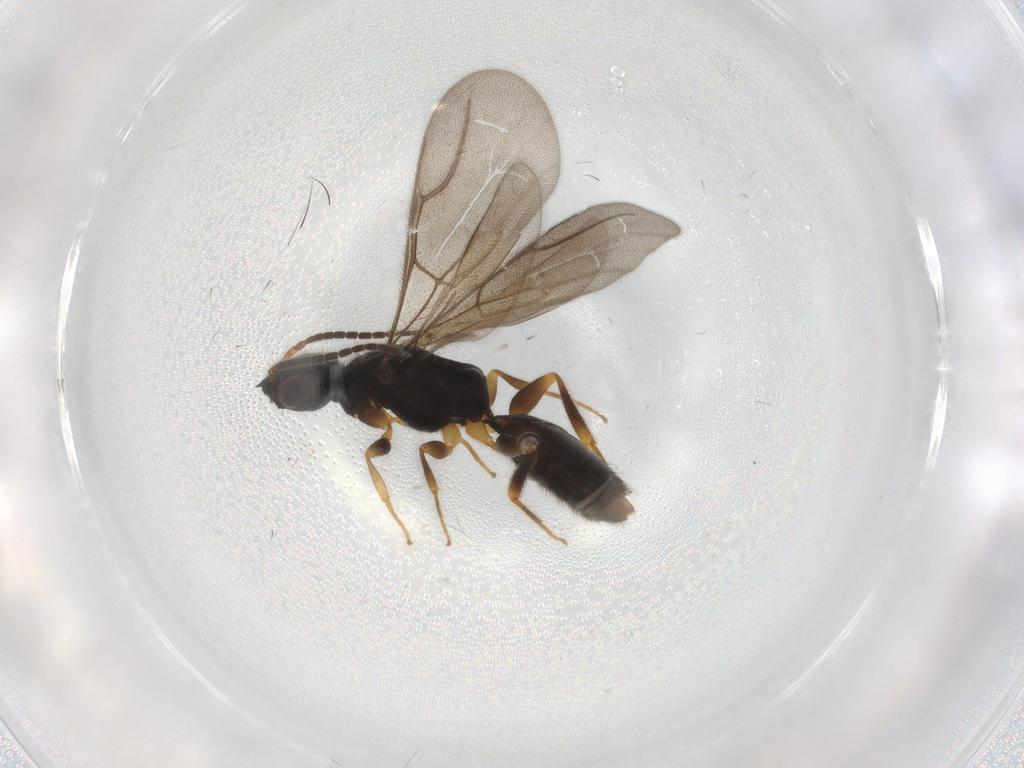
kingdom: Animalia
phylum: Arthropoda
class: Insecta
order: Hymenoptera
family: Bethylidae
